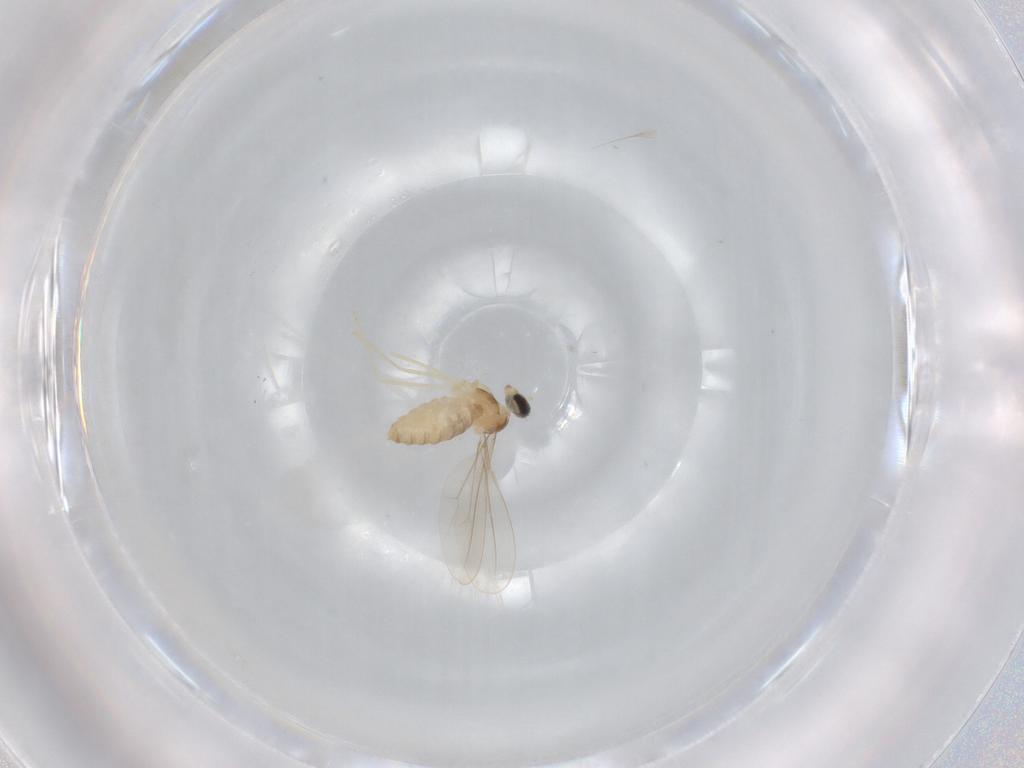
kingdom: Animalia
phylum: Arthropoda
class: Insecta
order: Diptera
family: Cecidomyiidae
